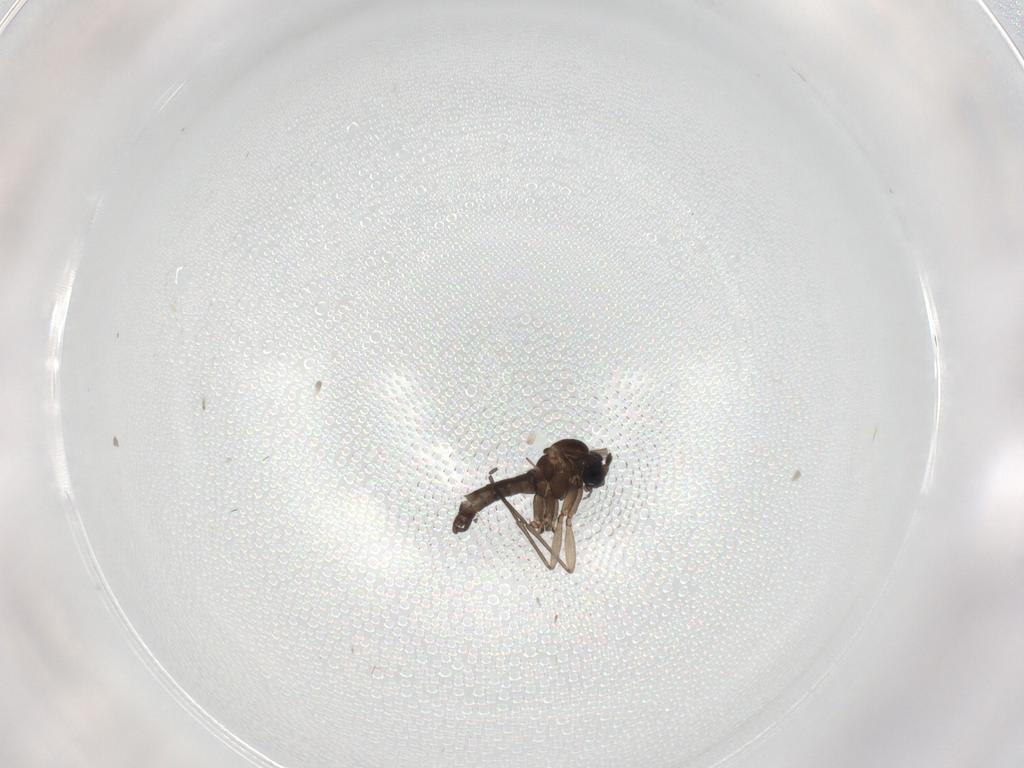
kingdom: Animalia
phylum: Arthropoda
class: Insecta
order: Diptera
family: Sciaridae
